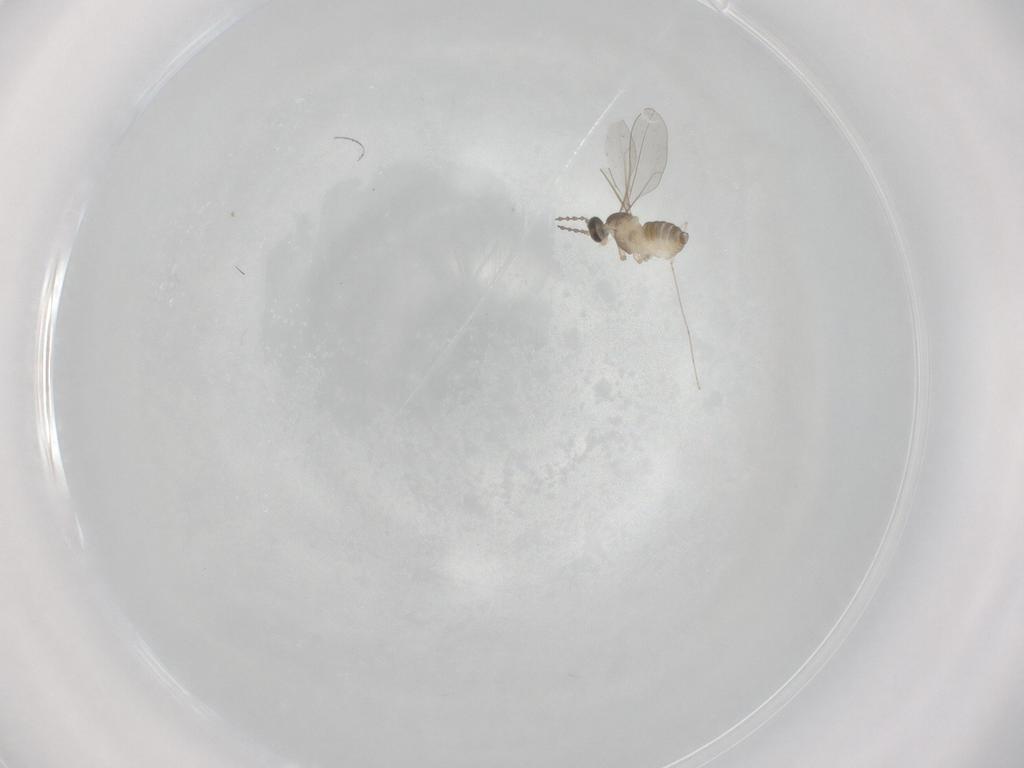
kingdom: Animalia
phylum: Arthropoda
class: Insecta
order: Diptera
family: Cecidomyiidae
